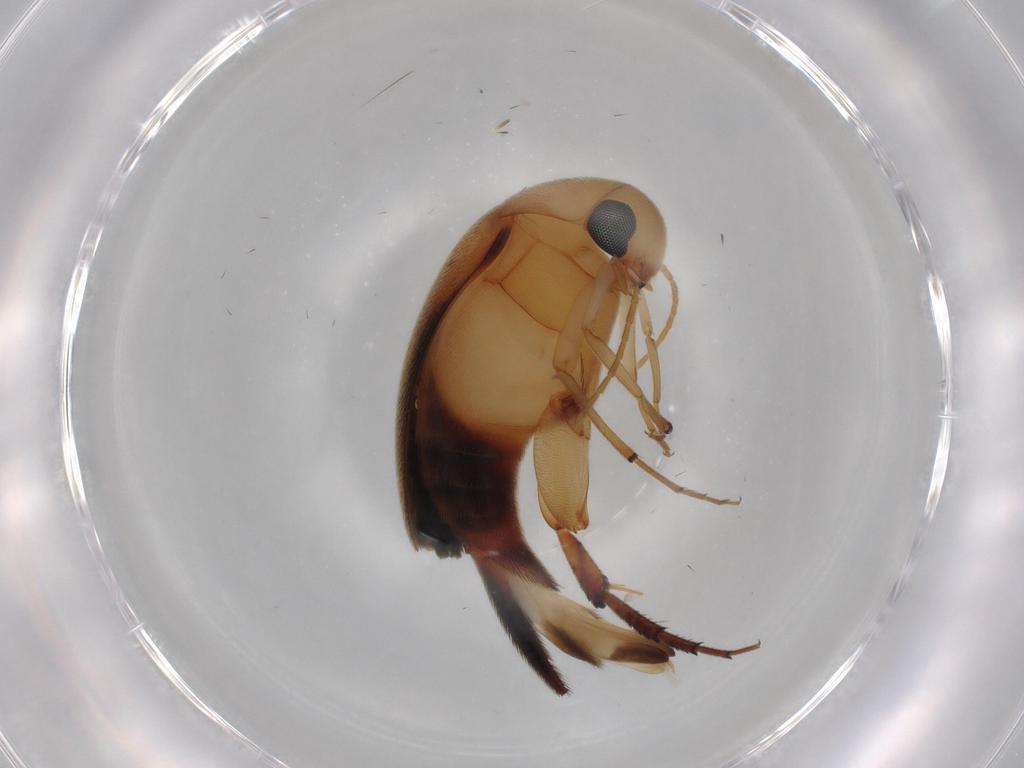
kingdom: Animalia
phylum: Arthropoda
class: Insecta
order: Coleoptera
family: Mordellidae
